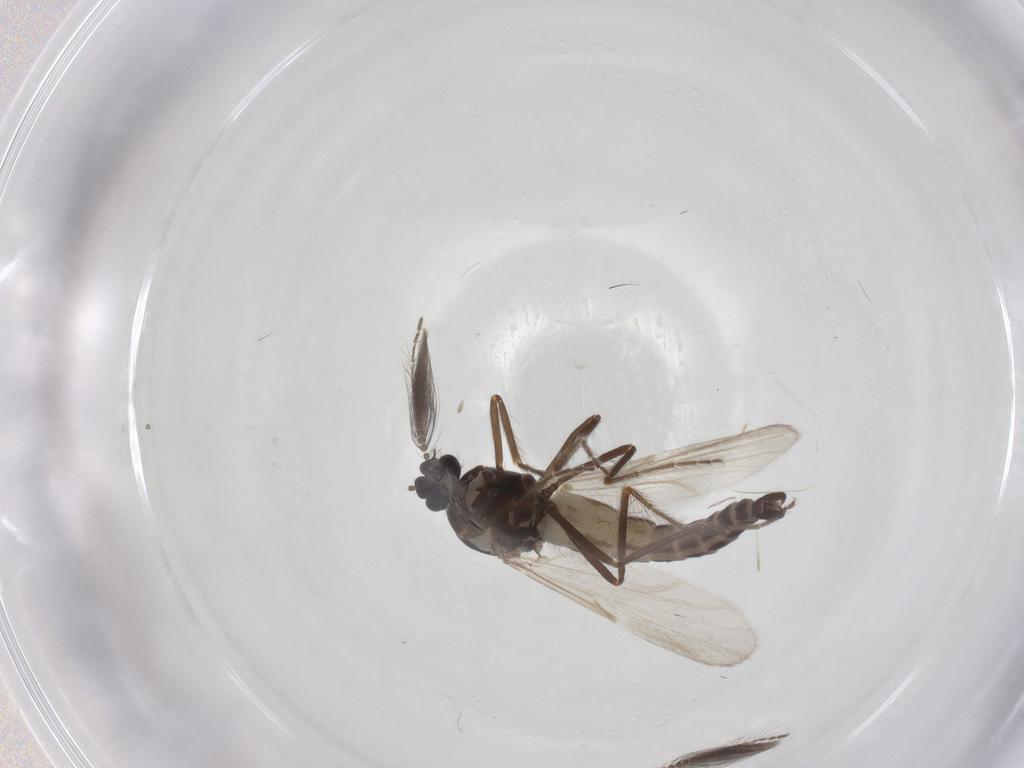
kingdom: Animalia
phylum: Arthropoda
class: Insecta
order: Diptera
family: Ceratopogonidae
